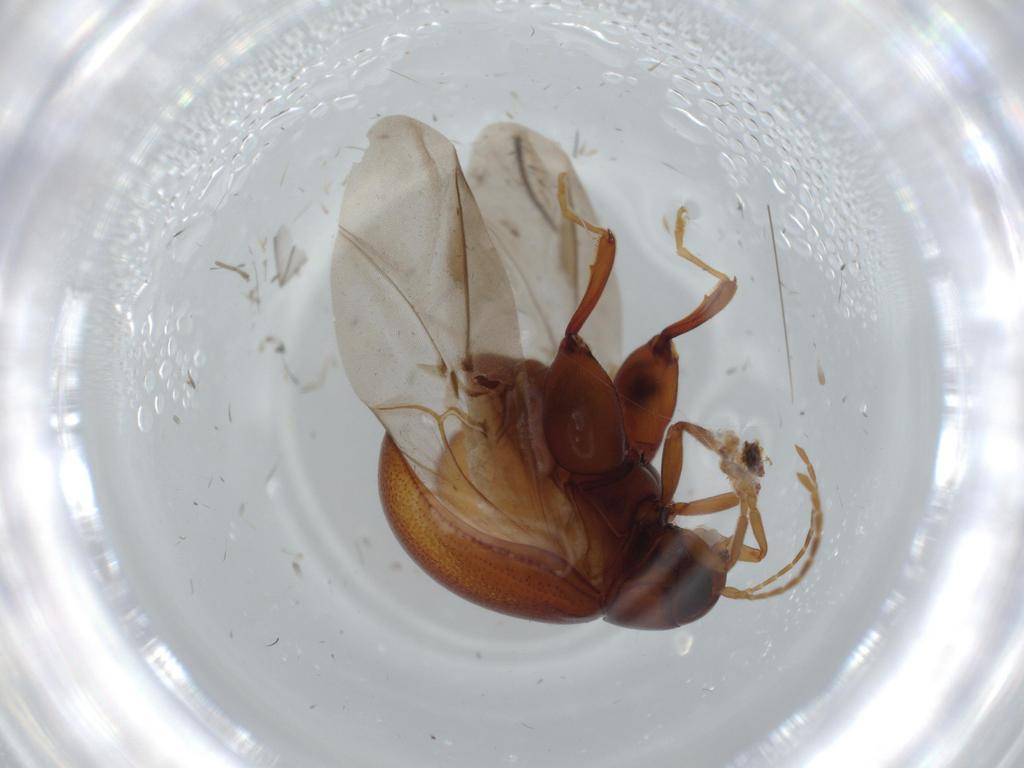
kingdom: Animalia
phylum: Arthropoda
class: Insecta
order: Coleoptera
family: Chrysomelidae
